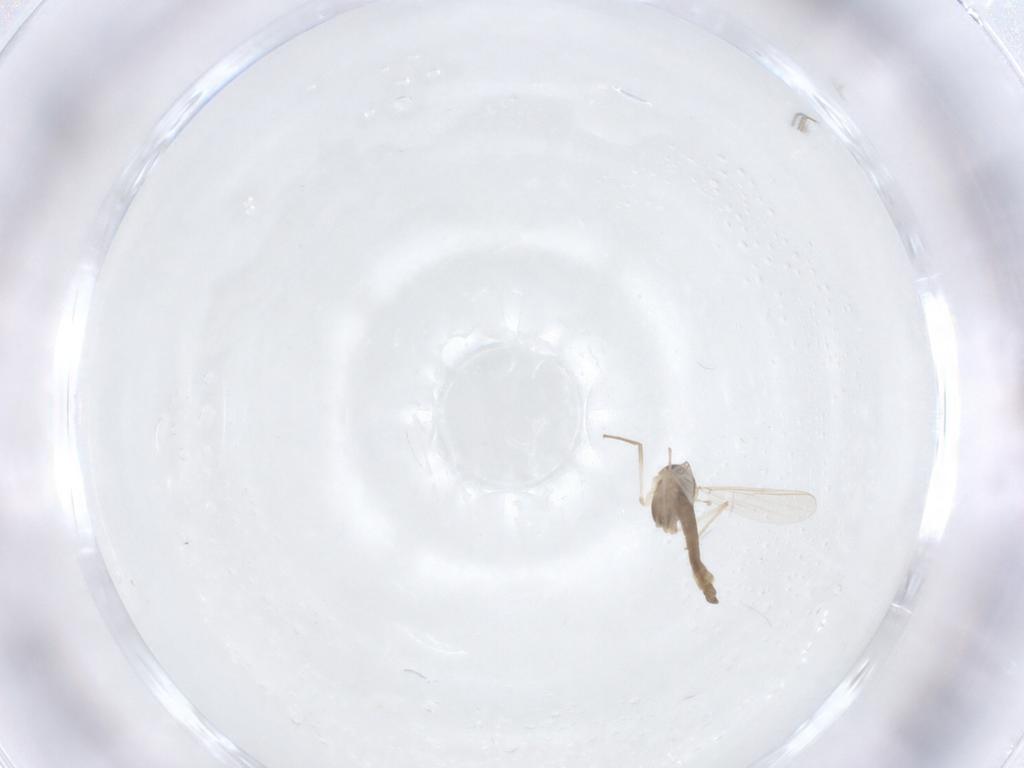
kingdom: Animalia
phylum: Arthropoda
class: Insecta
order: Diptera
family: Chironomidae
